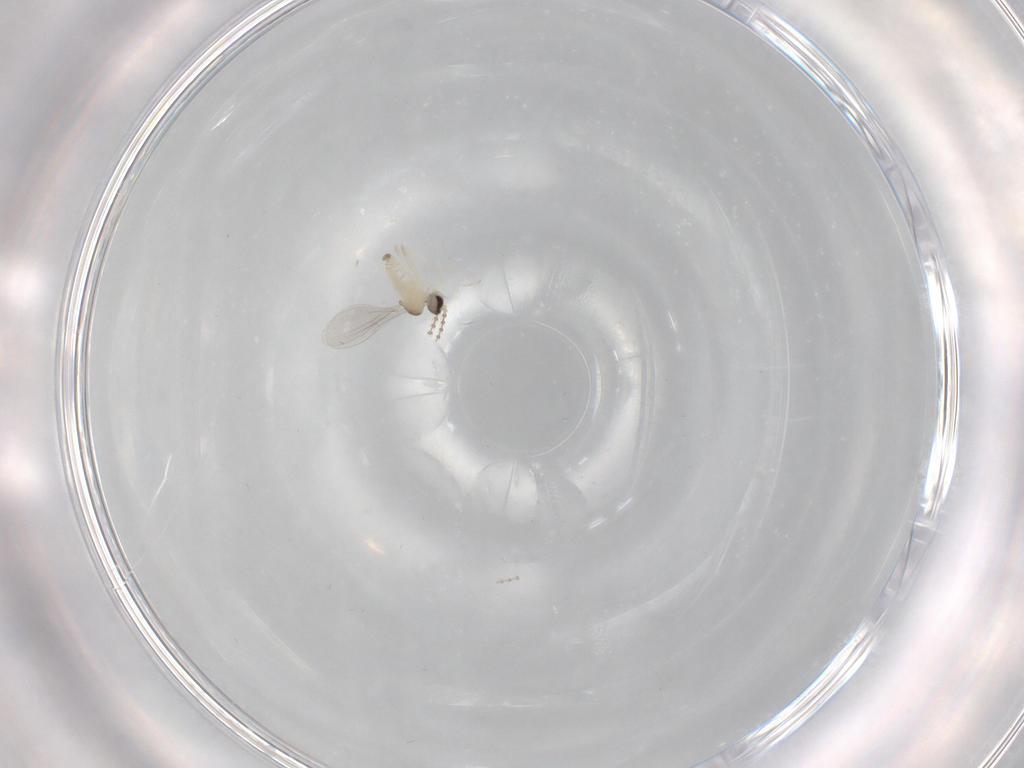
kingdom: Animalia
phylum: Arthropoda
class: Insecta
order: Diptera
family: Cecidomyiidae
